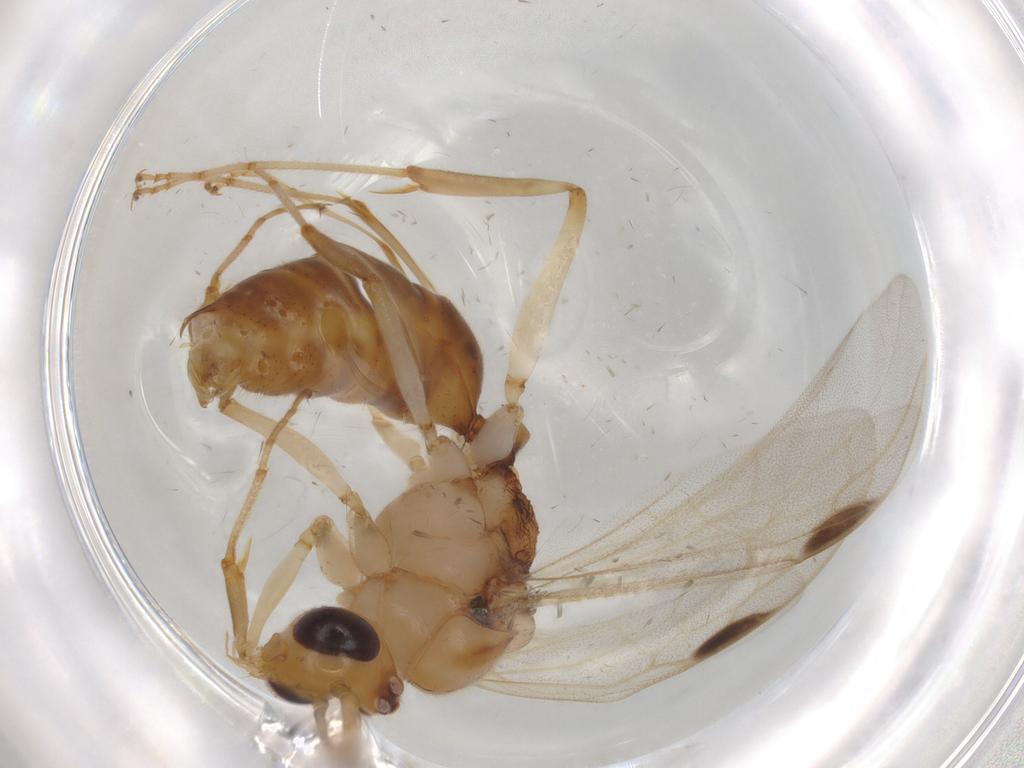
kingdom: Animalia
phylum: Arthropoda
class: Insecta
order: Hymenoptera
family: Formicidae
